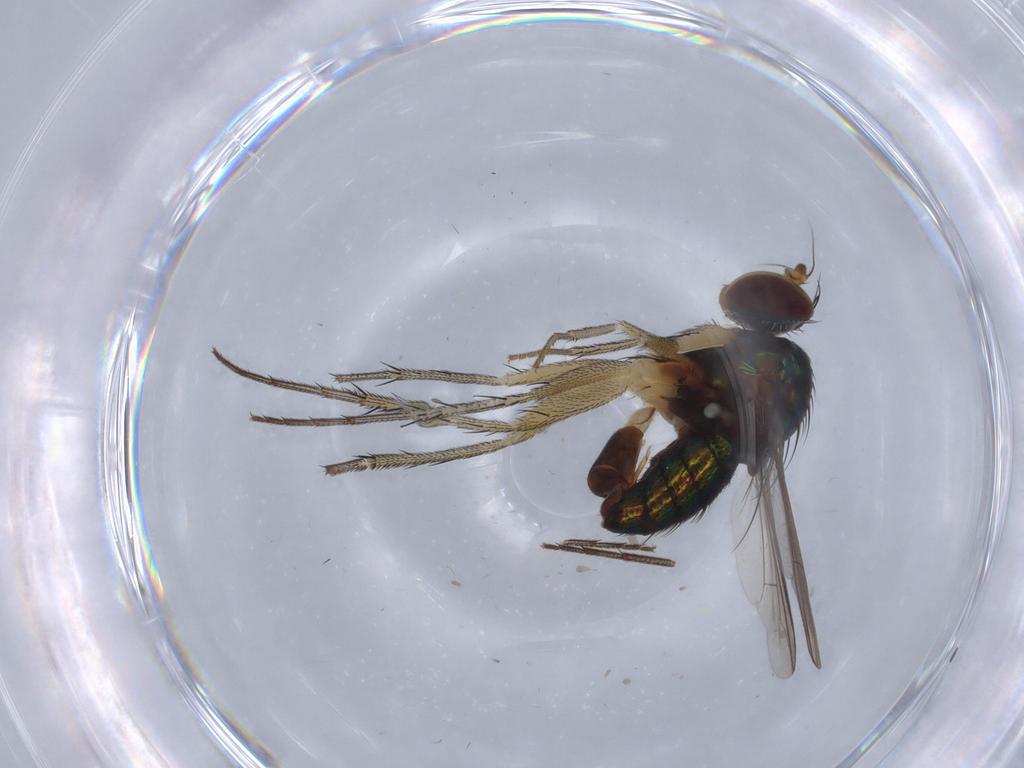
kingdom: Animalia
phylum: Arthropoda
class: Insecta
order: Diptera
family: Dolichopodidae
